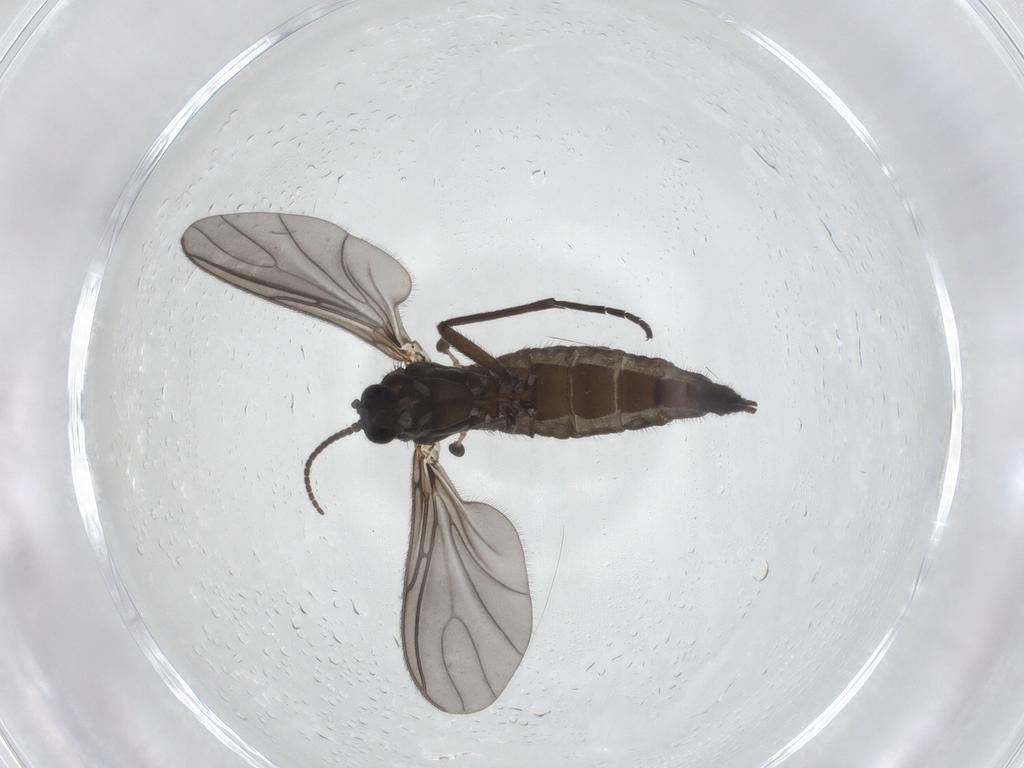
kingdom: Animalia
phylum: Arthropoda
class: Insecta
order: Diptera
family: Sciaridae
